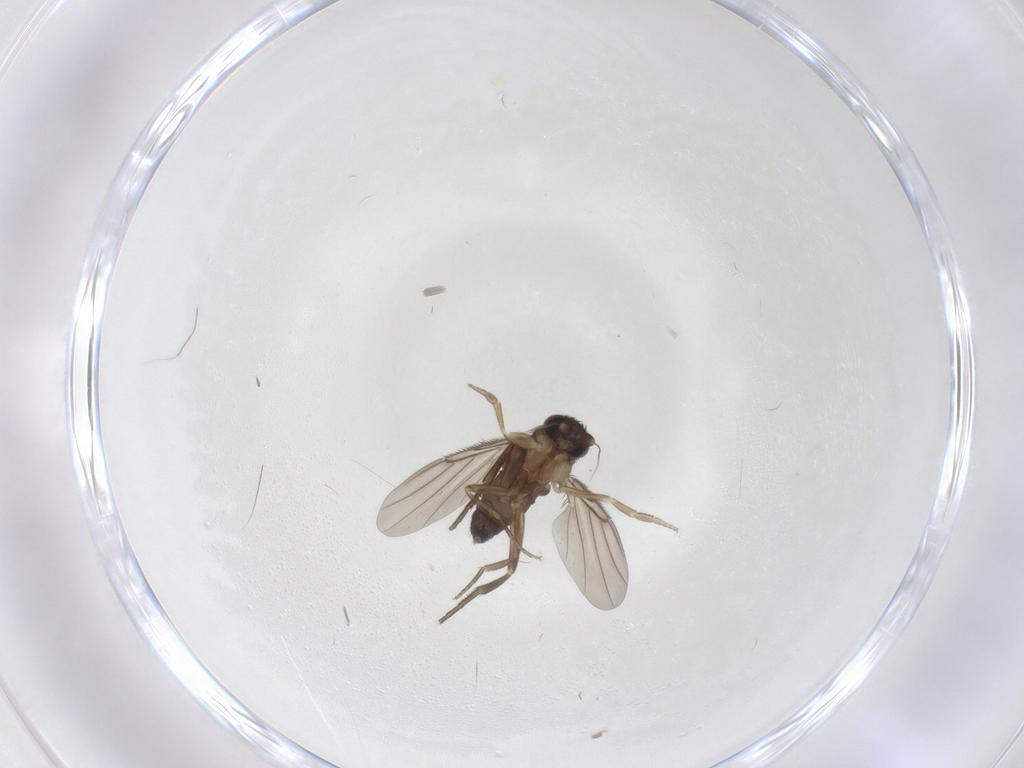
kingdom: Animalia
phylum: Arthropoda
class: Insecta
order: Diptera
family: Phoridae
